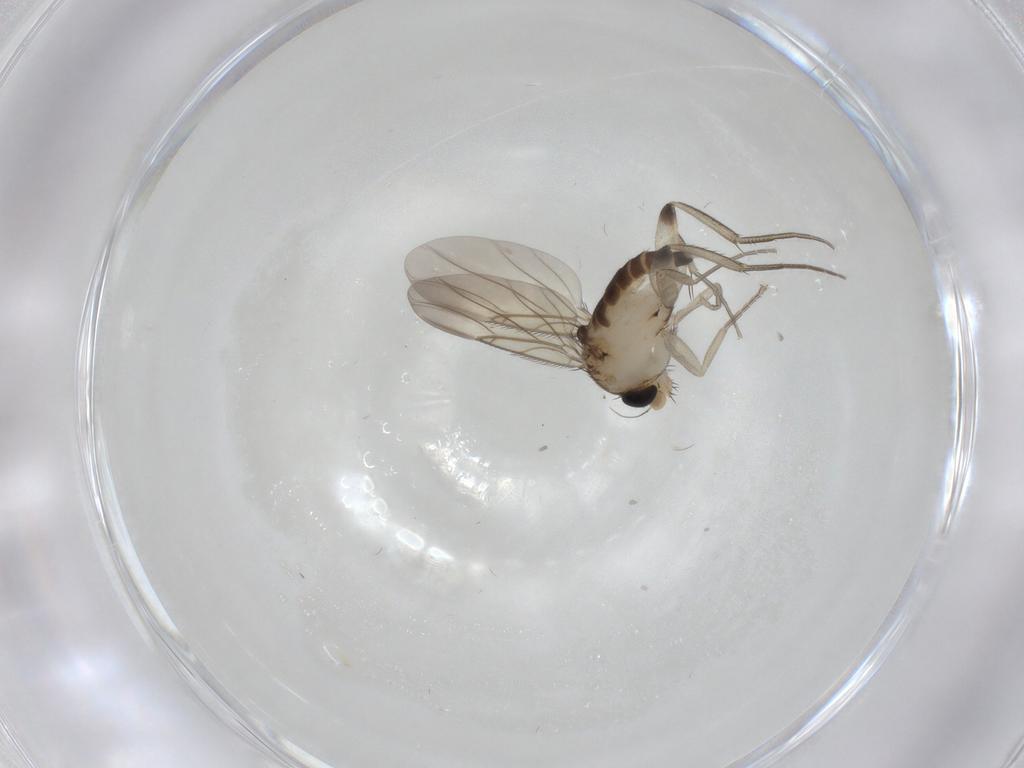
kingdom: Animalia
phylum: Arthropoda
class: Insecta
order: Diptera
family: Phoridae
